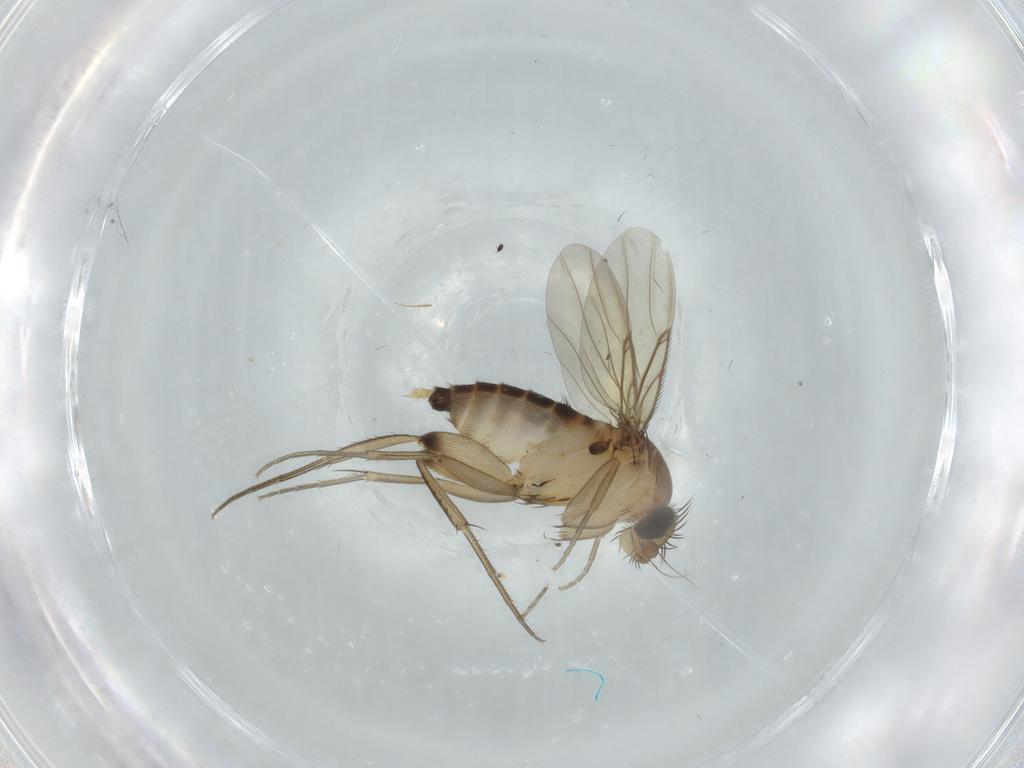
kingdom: Animalia
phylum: Arthropoda
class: Insecta
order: Diptera
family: Phoridae
